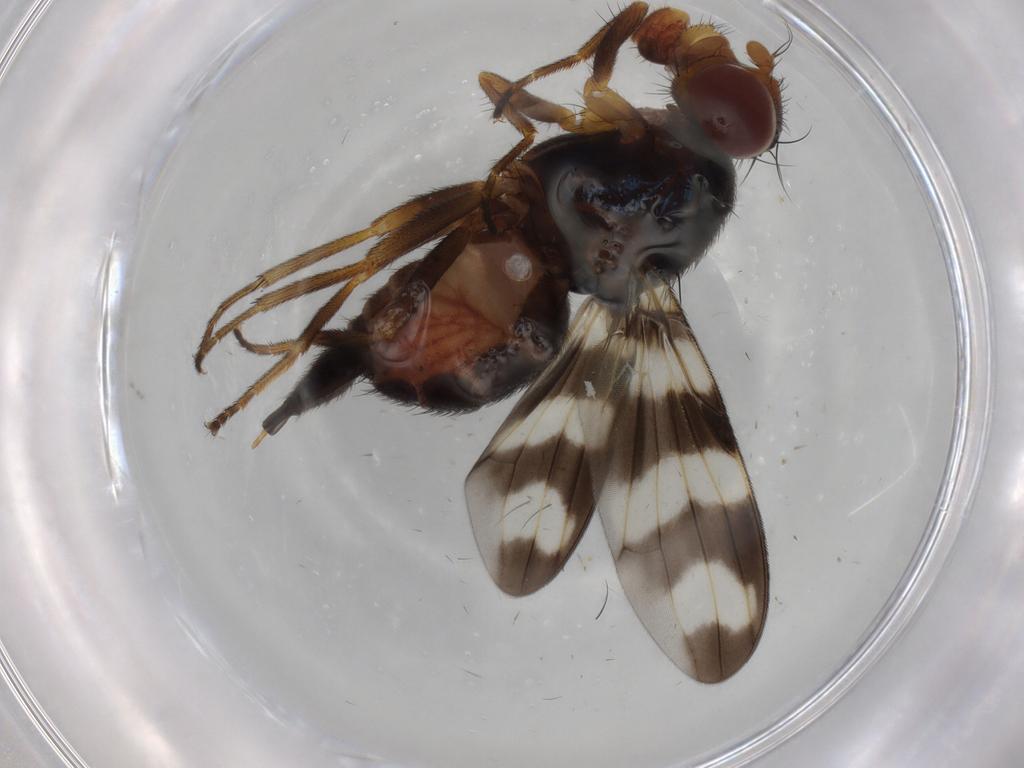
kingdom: Animalia
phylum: Arthropoda
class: Insecta
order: Diptera
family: Ulidiidae
